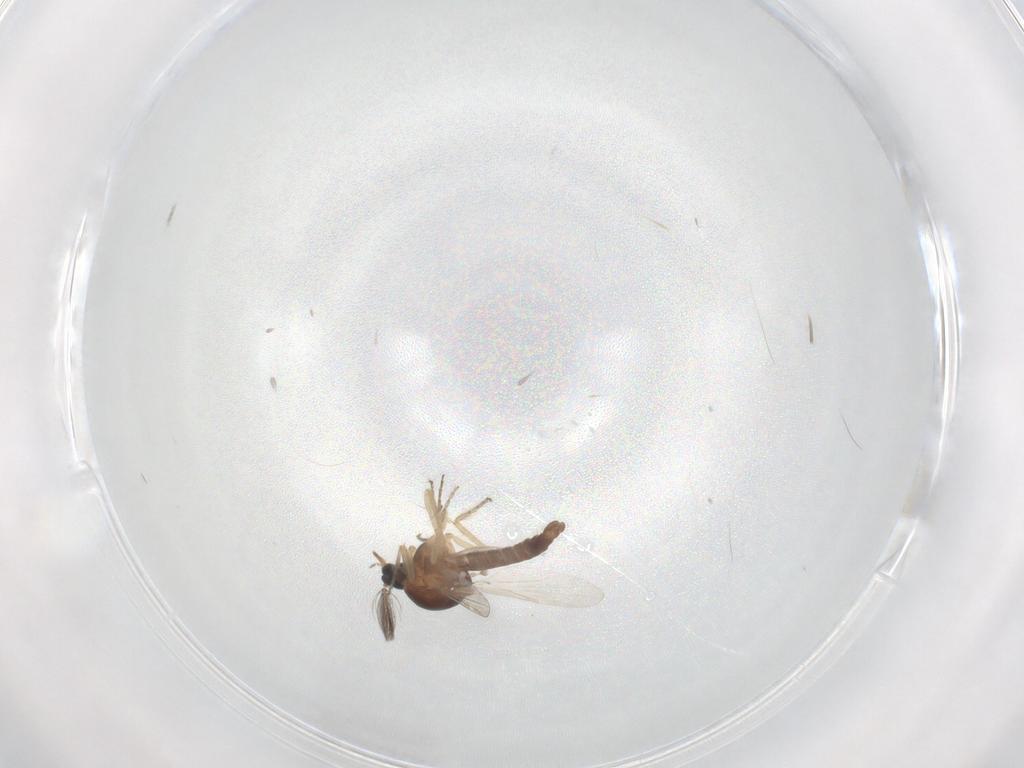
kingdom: Animalia
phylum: Arthropoda
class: Insecta
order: Diptera
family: Ceratopogonidae
